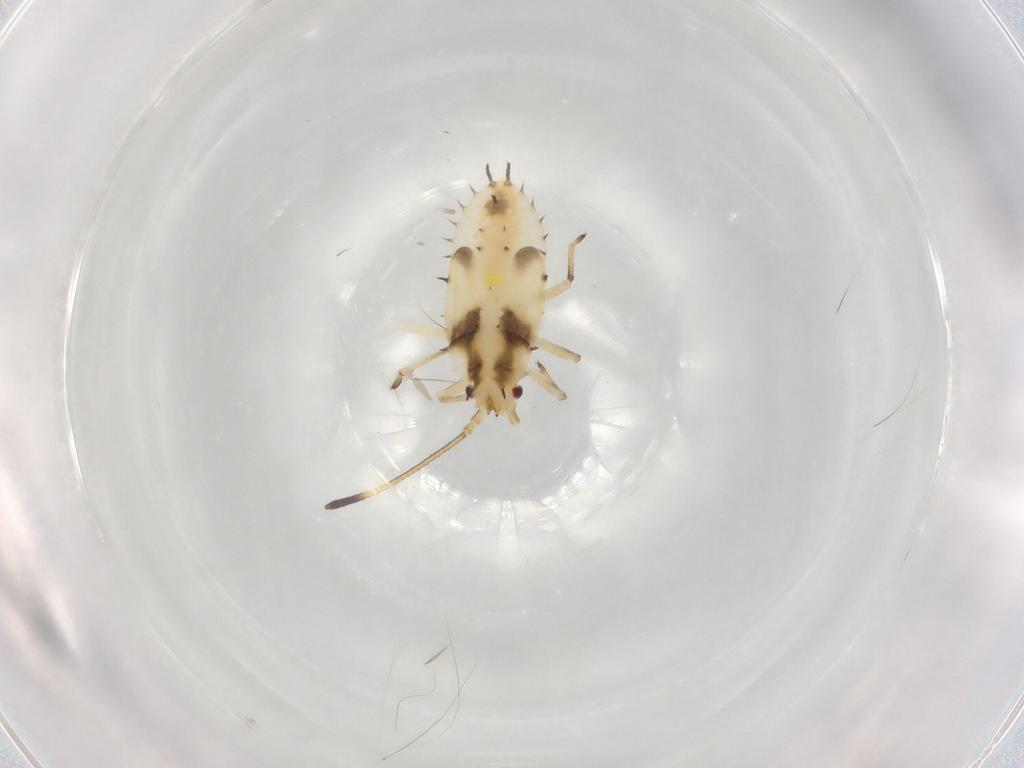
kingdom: Animalia
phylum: Arthropoda
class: Insecta
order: Hemiptera
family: Tingidae
